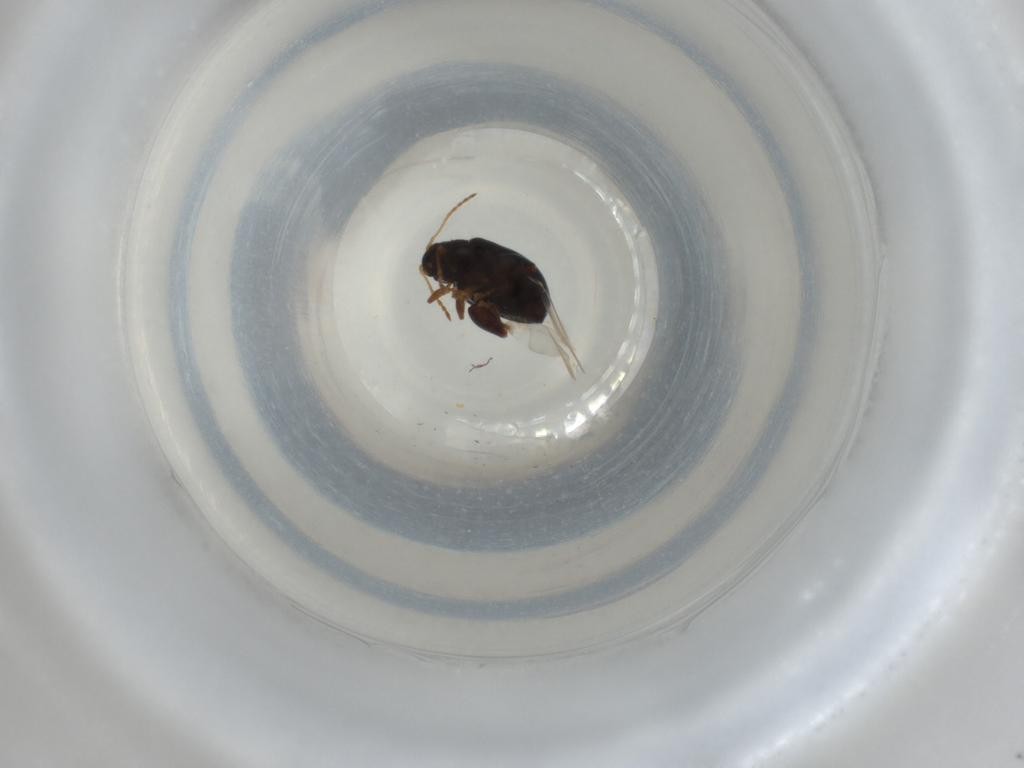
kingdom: Animalia
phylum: Arthropoda
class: Insecta
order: Coleoptera
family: Chrysomelidae
